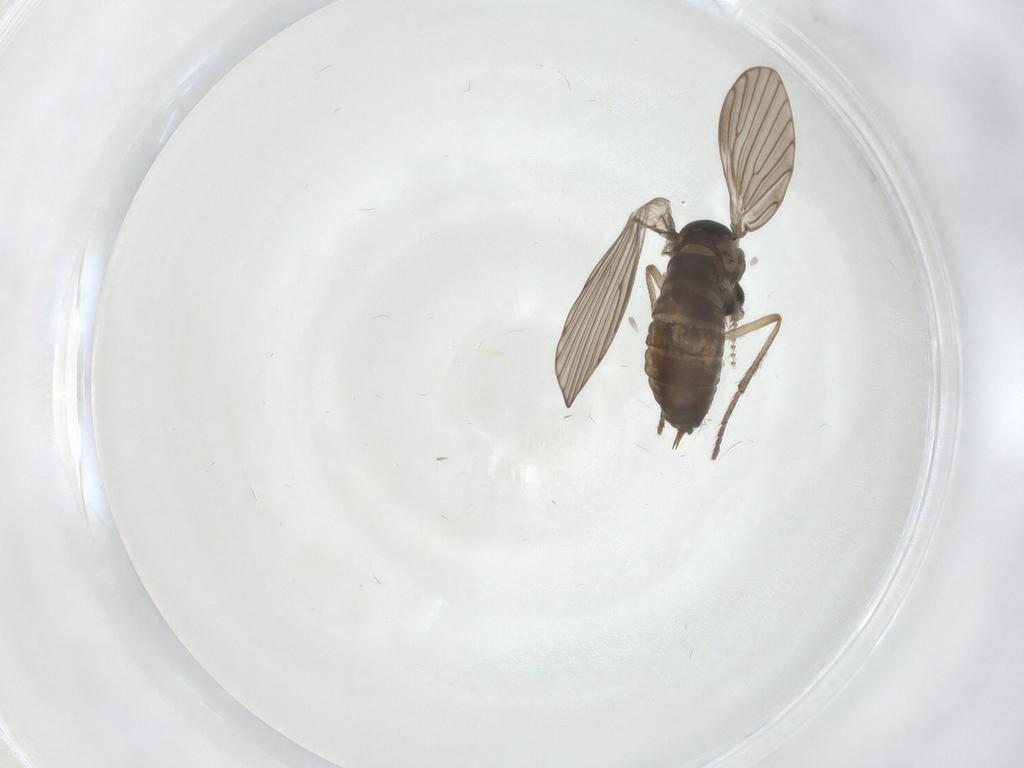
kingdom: Animalia
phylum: Arthropoda
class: Insecta
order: Diptera
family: Psychodidae
